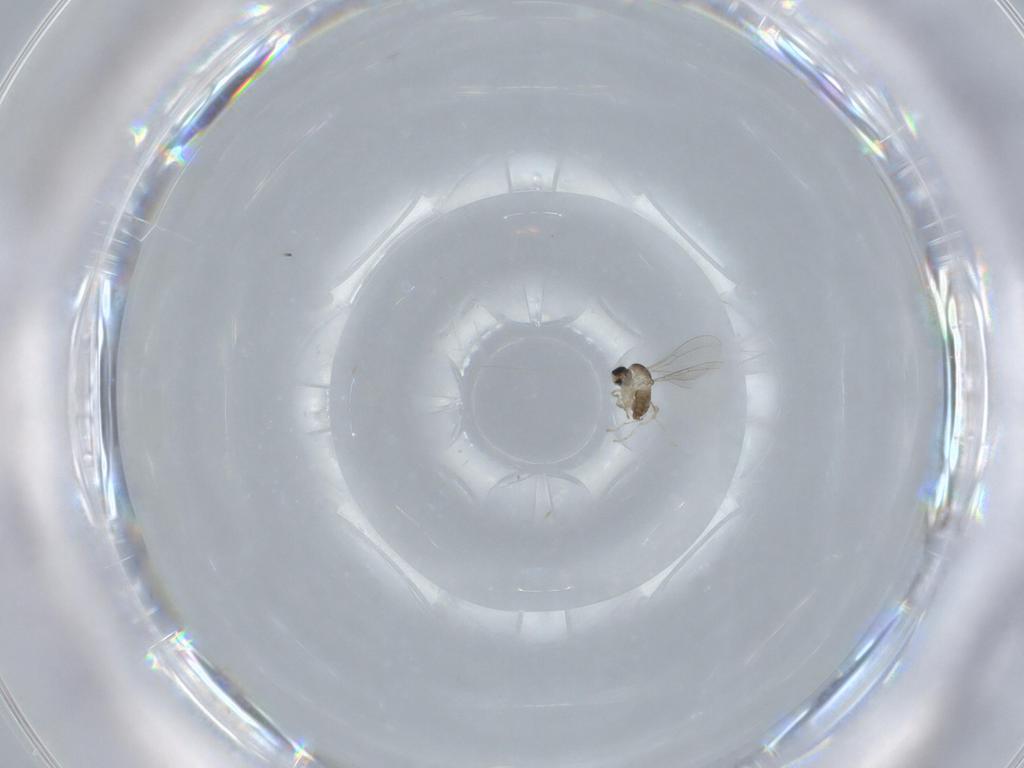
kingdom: Animalia
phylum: Arthropoda
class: Insecta
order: Diptera
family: Cecidomyiidae
